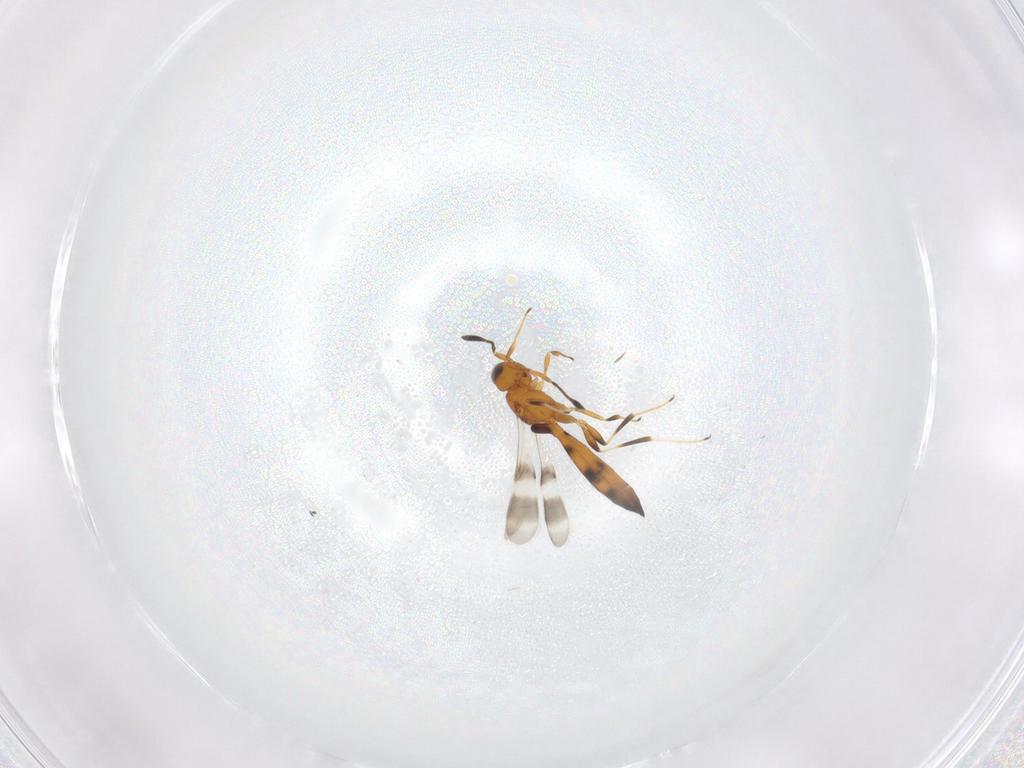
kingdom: Animalia
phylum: Arthropoda
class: Insecta
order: Hymenoptera
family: Scelionidae
